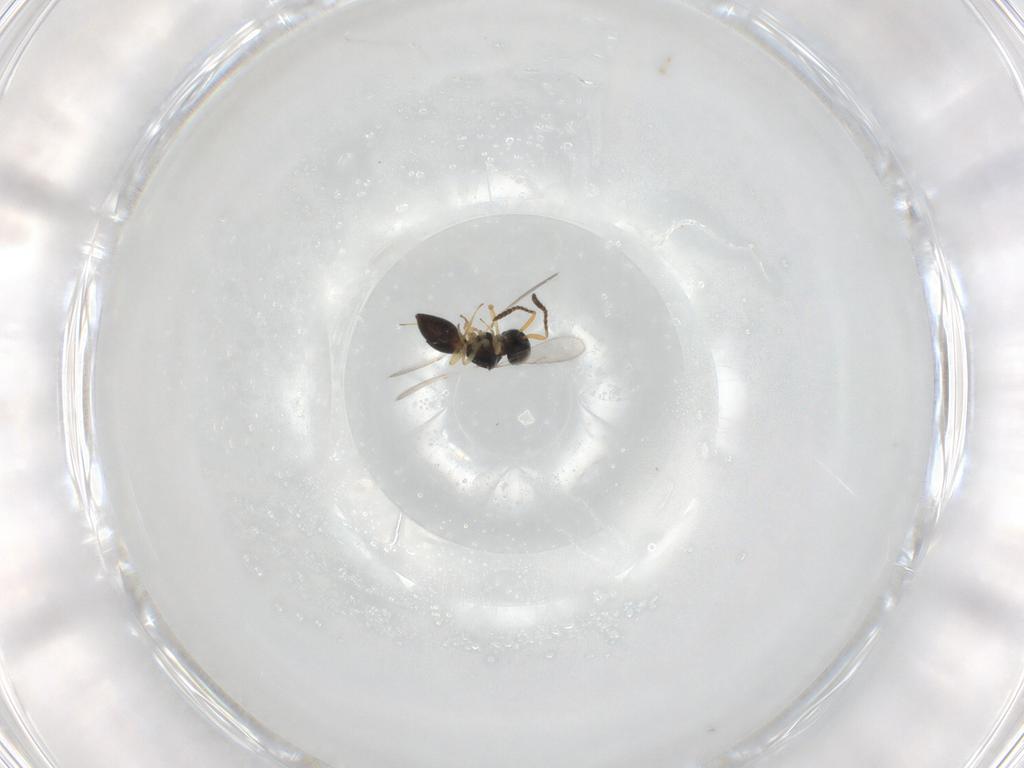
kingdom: Animalia
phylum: Arthropoda
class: Insecta
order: Hymenoptera
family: Scelionidae
